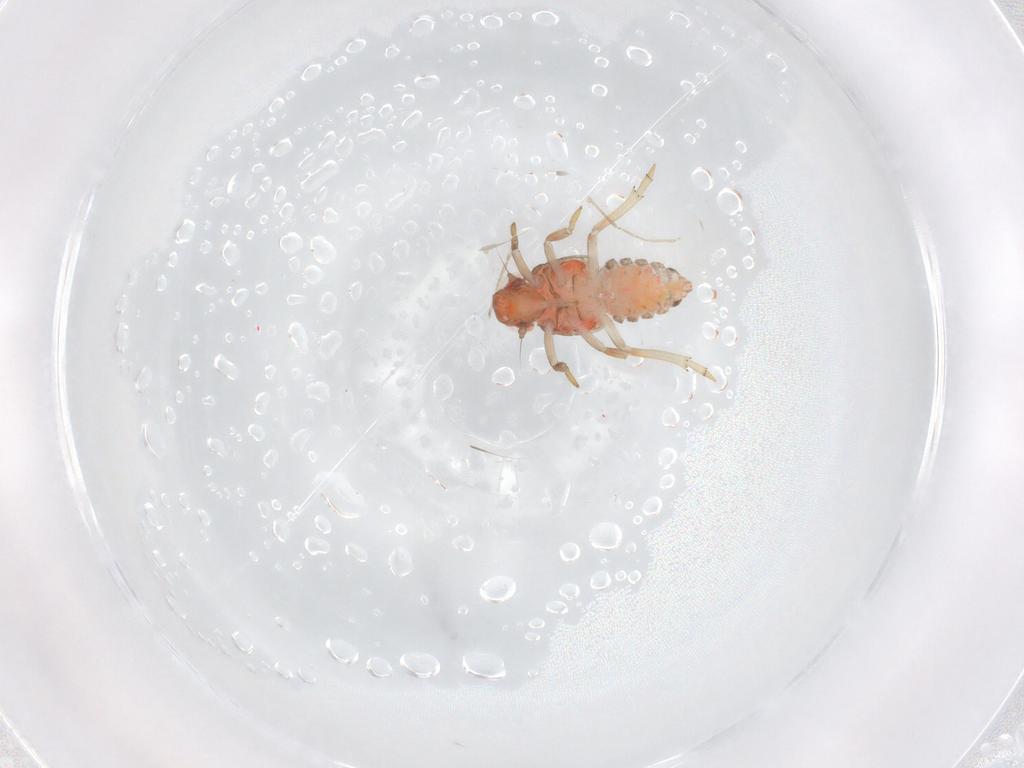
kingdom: Animalia
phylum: Arthropoda
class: Insecta
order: Hemiptera
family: Issidae
